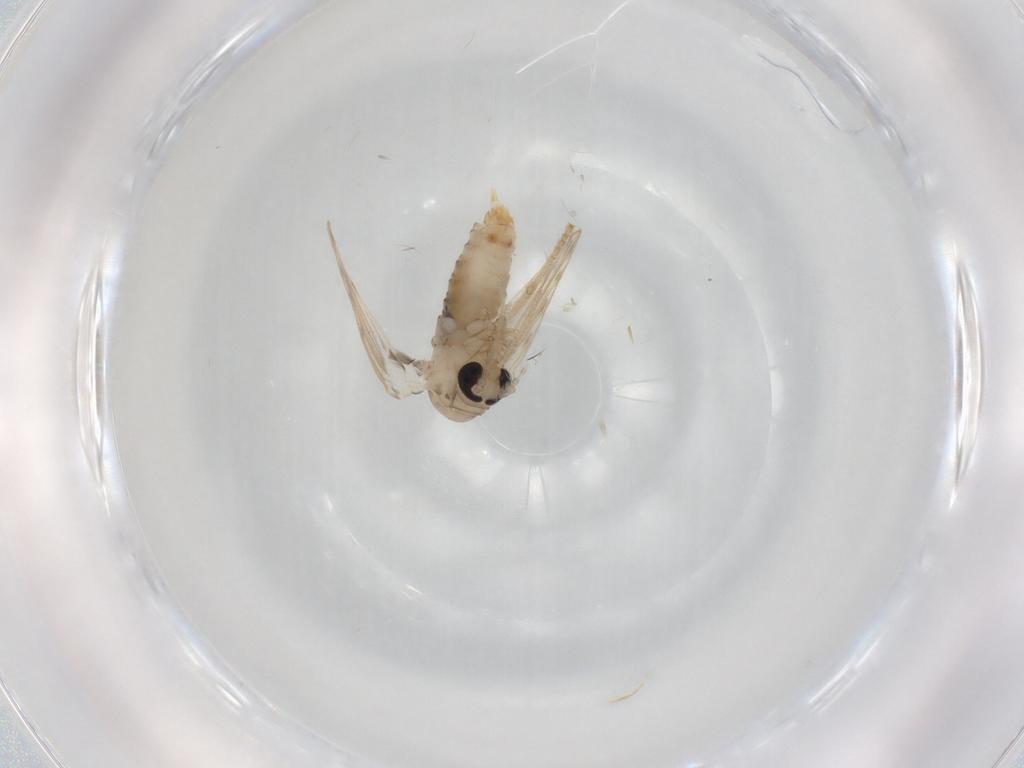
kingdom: Animalia
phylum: Arthropoda
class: Insecta
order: Diptera
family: Psychodidae
